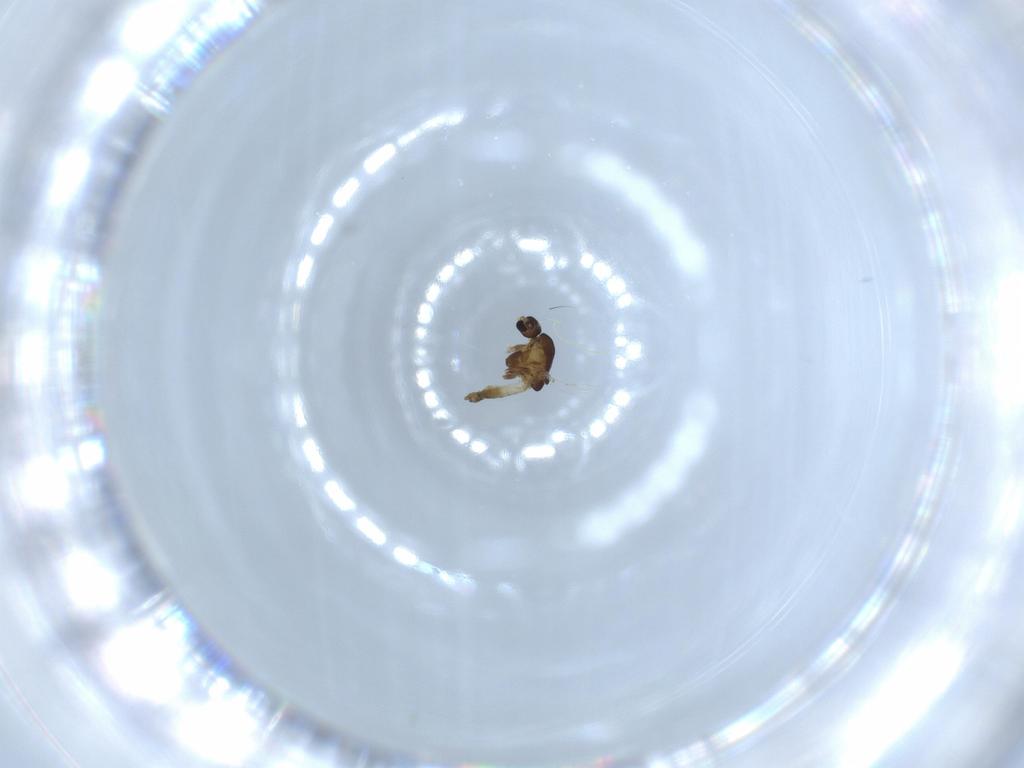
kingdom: Animalia
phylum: Arthropoda
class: Insecta
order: Diptera
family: Chironomidae
